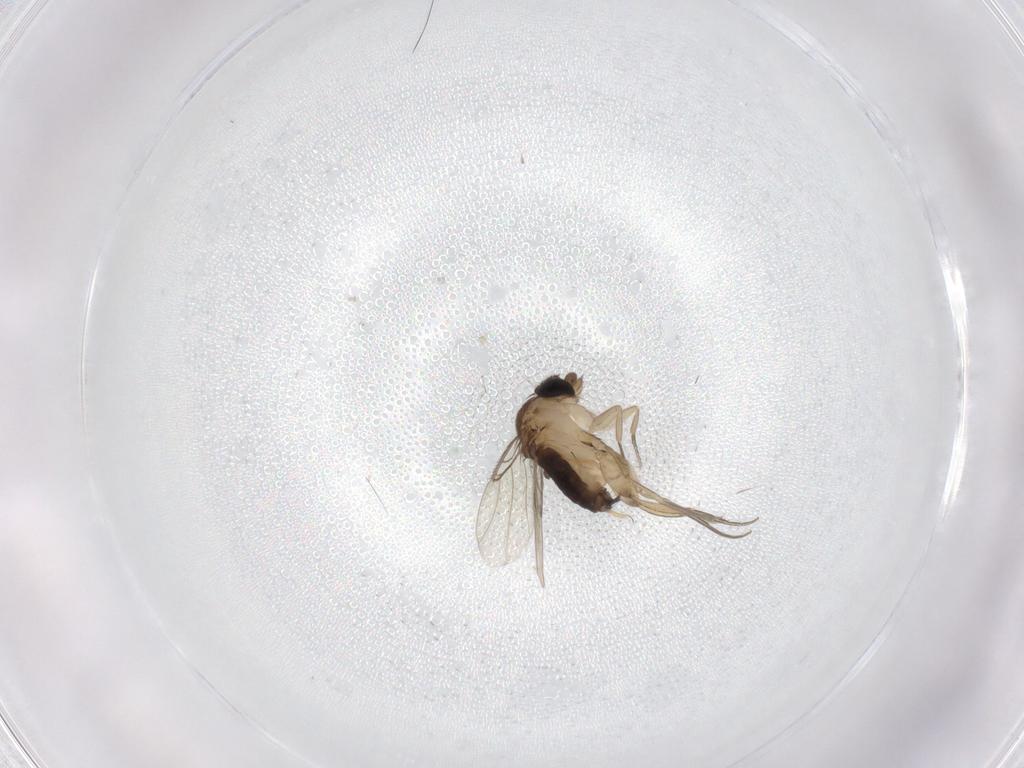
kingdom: Animalia
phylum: Arthropoda
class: Insecta
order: Diptera
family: Phoridae
